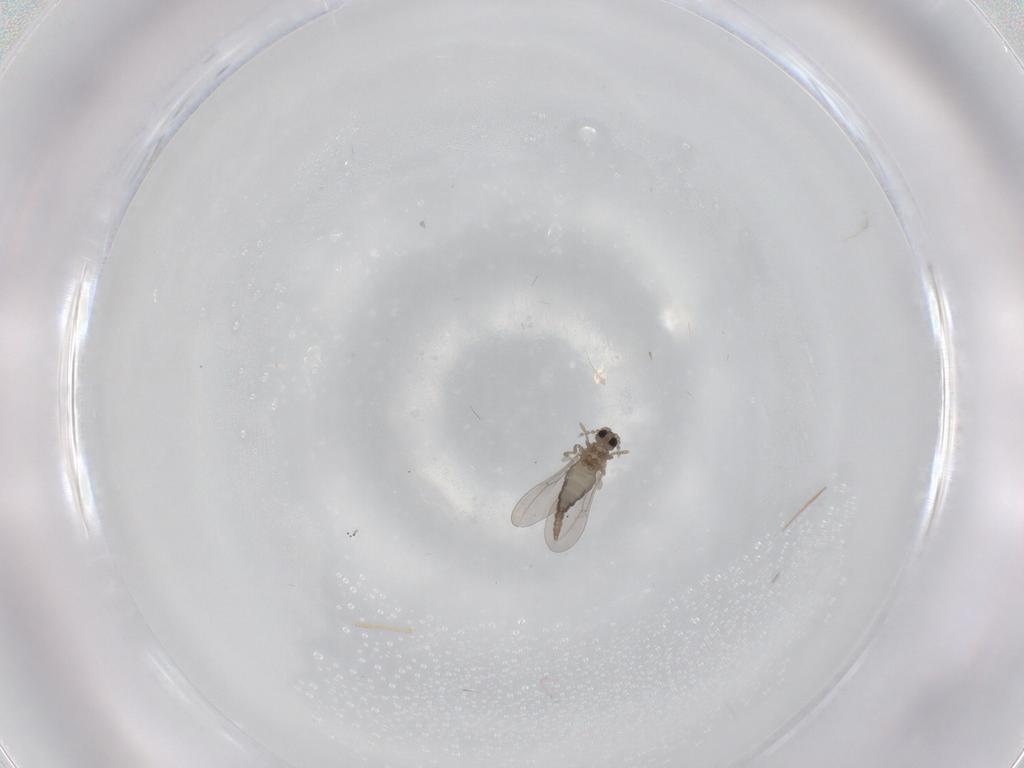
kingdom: Animalia
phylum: Arthropoda
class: Insecta
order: Diptera
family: Cecidomyiidae
